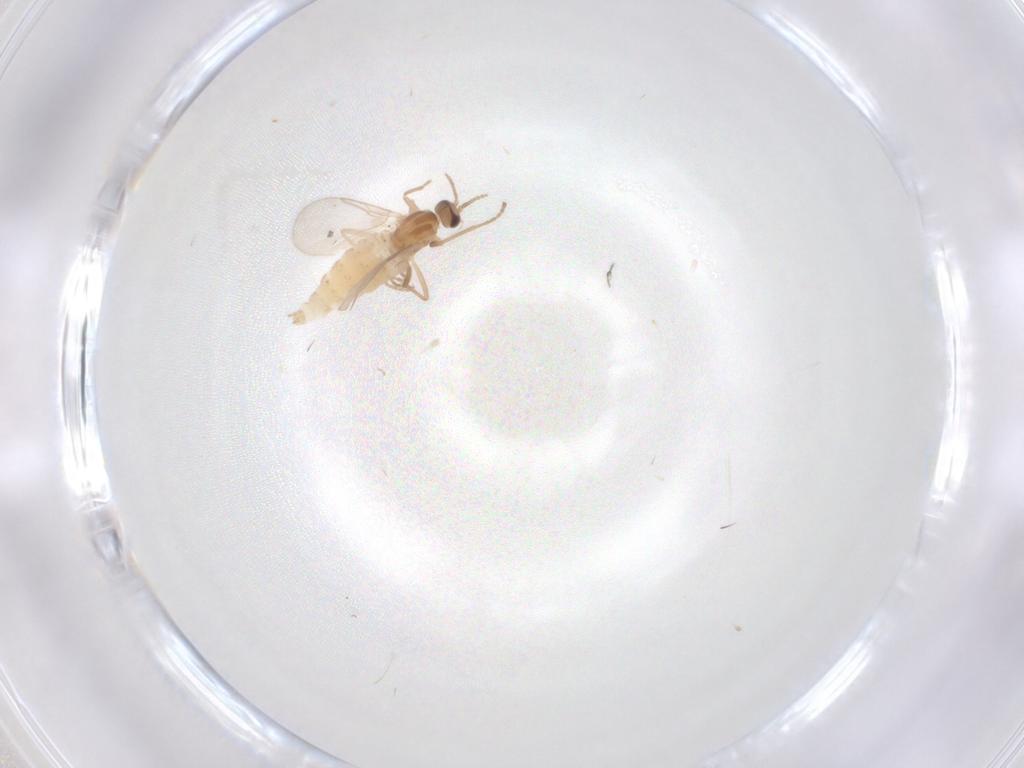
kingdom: Animalia
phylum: Arthropoda
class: Insecta
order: Diptera
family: Cecidomyiidae
